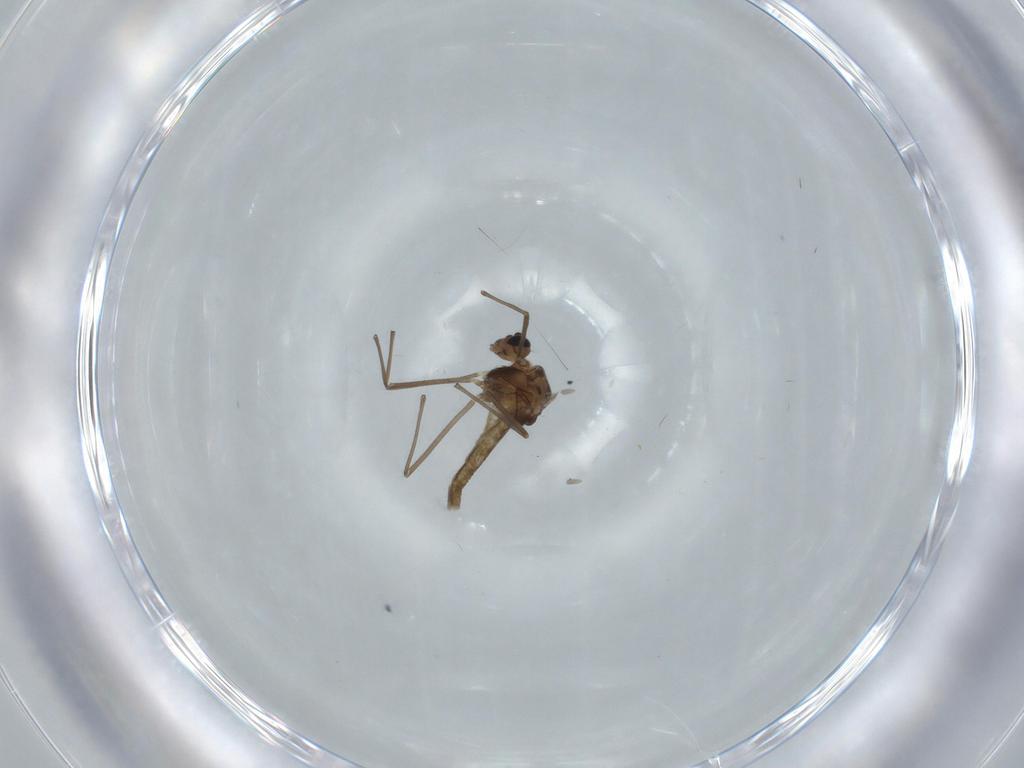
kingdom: Animalia
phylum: Arthropoda
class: Insecta
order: Diptera
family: Chironomidae
